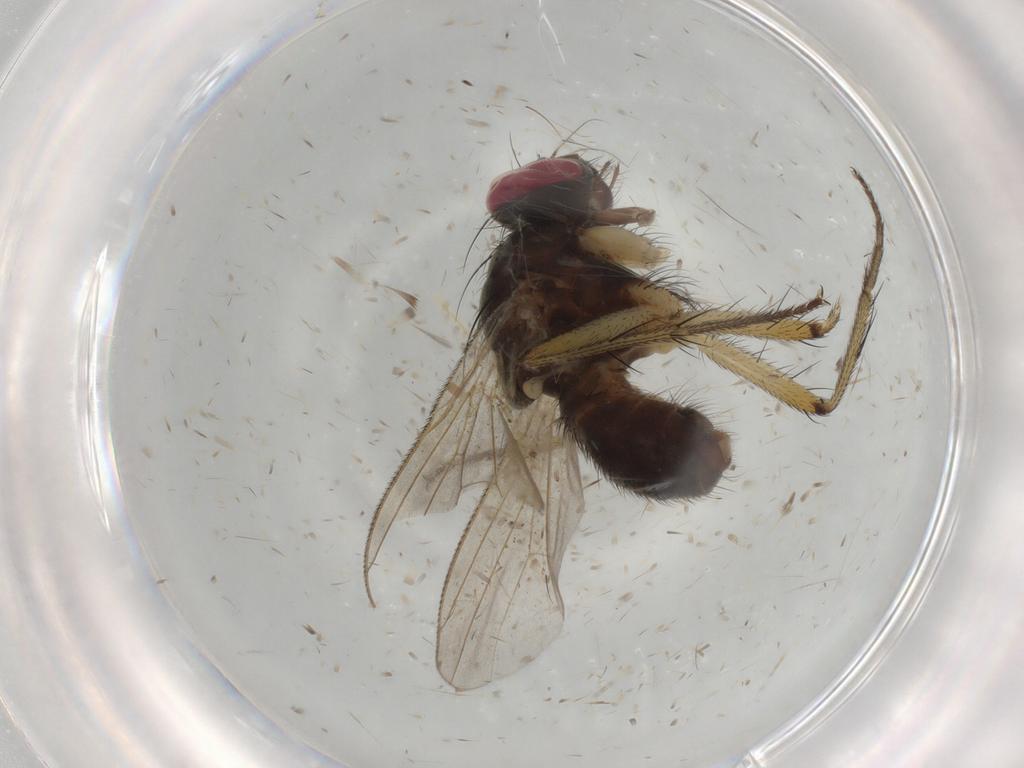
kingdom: Animalia
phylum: Arthropoda
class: Insecta
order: Diptera
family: Muscidae
